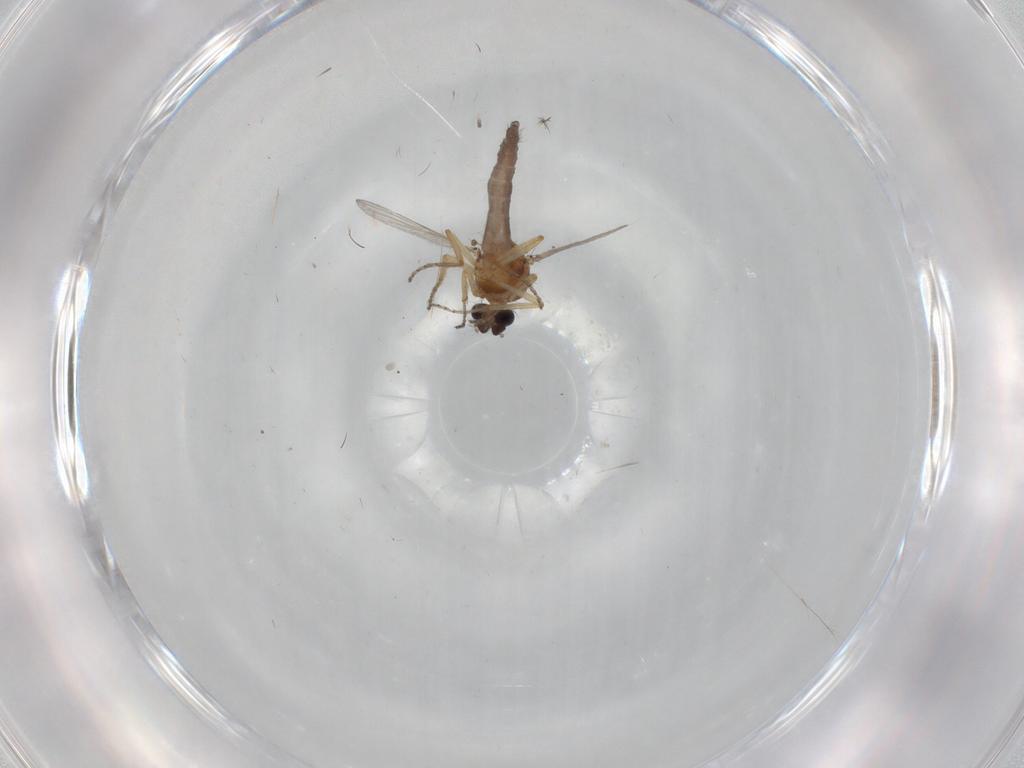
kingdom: Animalia
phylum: Arthropoda
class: Insecta
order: Diptera
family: Ceratopogonidae
